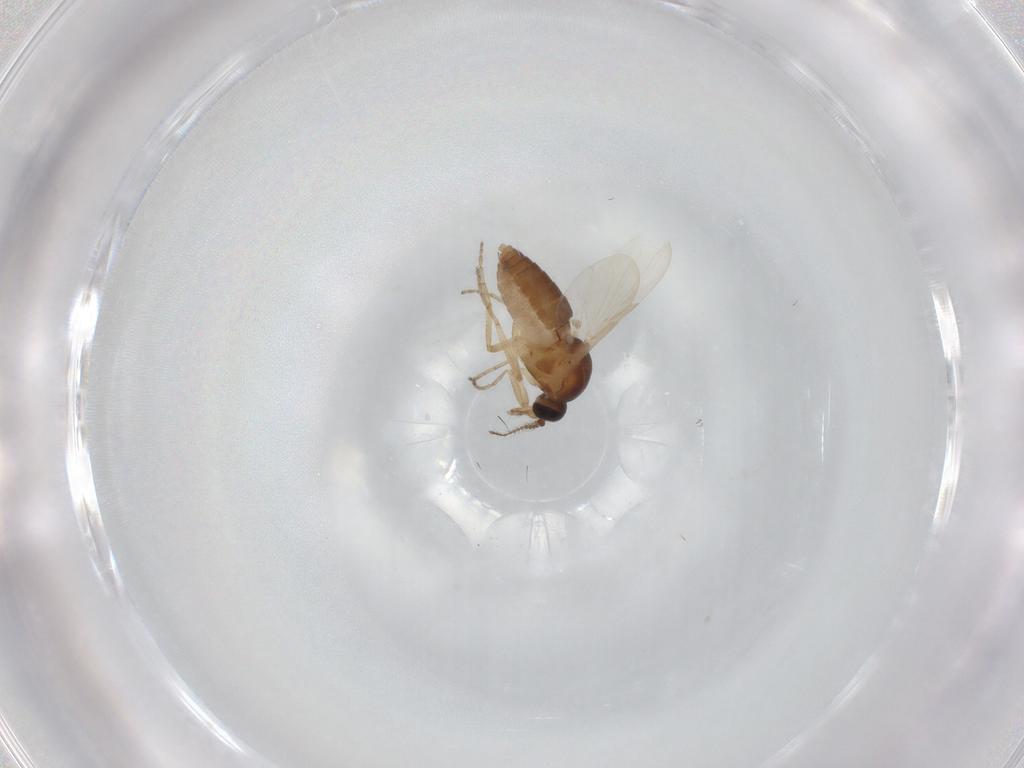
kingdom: Animalia
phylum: Arthropoda
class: Insecta
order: Diptera
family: Ceratopogonidae
